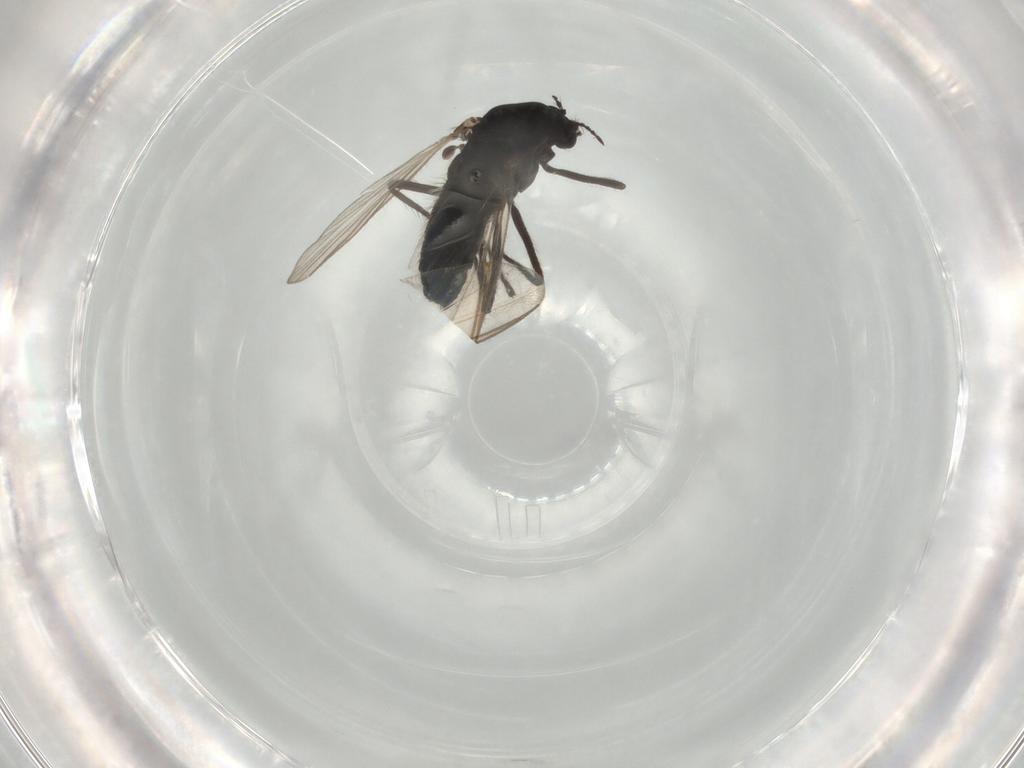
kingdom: Animalia
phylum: Arthropoda
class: Insecta
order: Diptera
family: Chironomidae
